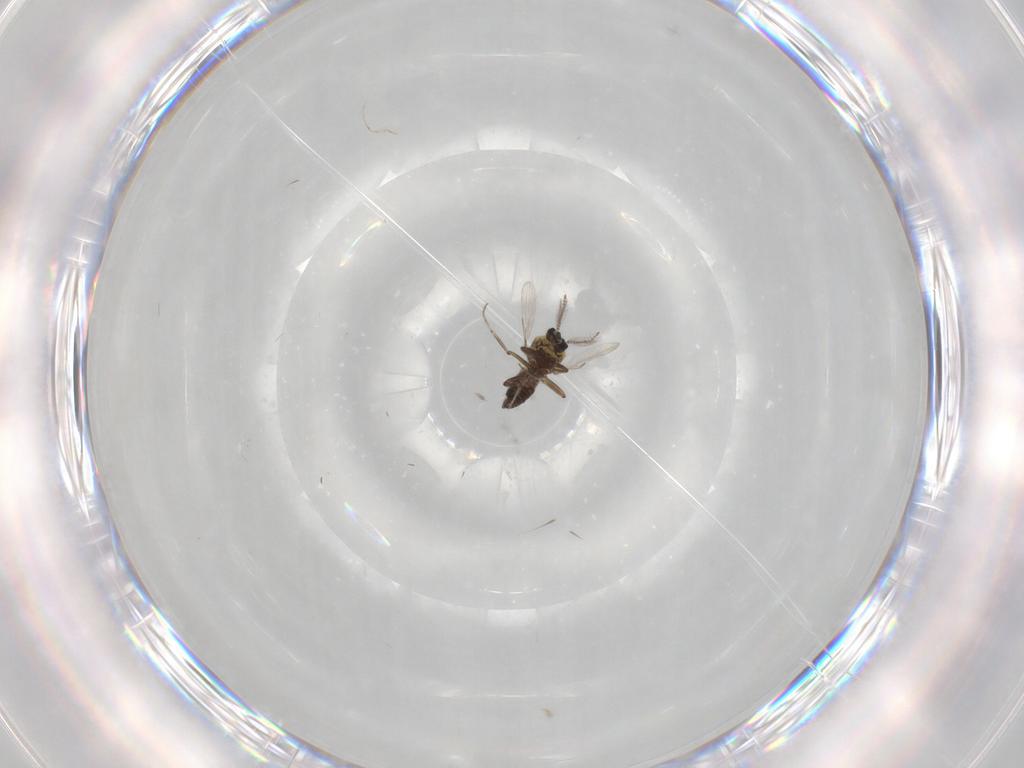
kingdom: Animalia
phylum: Arthropoda
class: Insecta
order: Diptera
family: Ceratopogonidae
